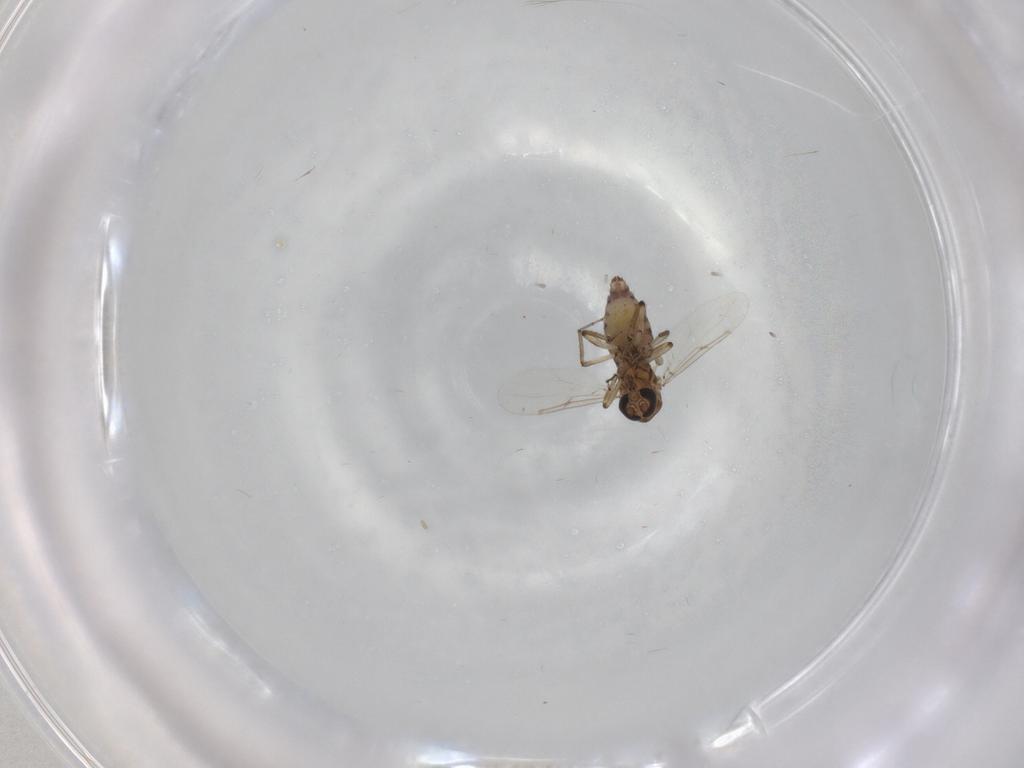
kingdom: Animalia
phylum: Arthropoda
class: Insecta
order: Diptera
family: Ceratopogonidae
